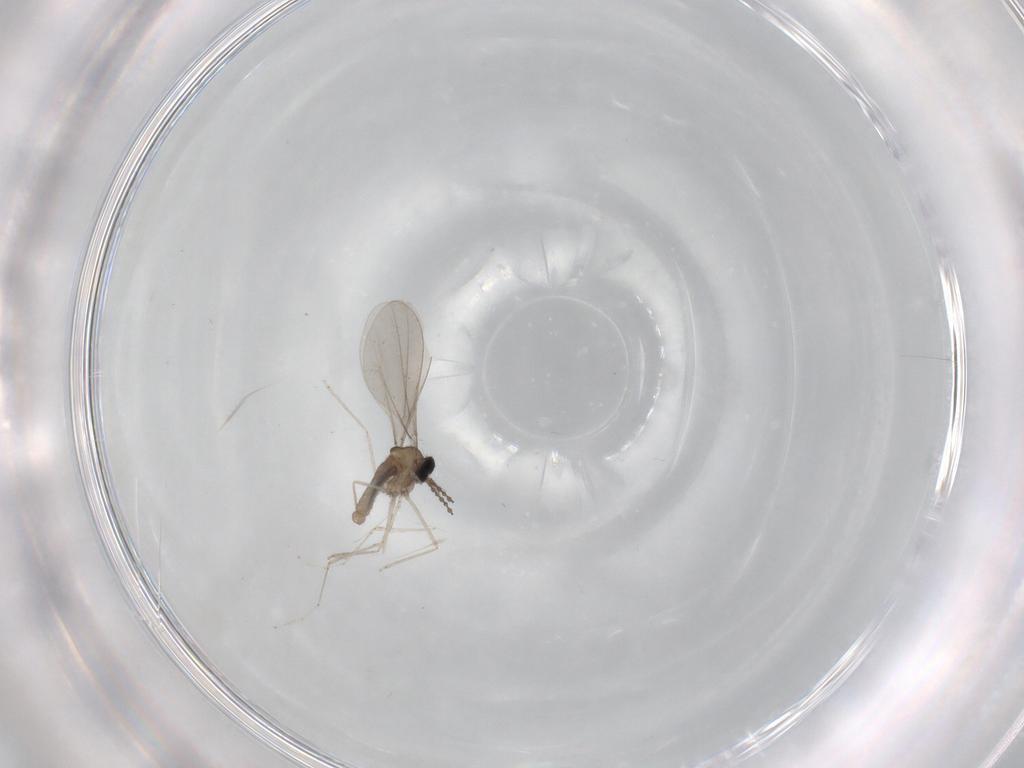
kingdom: Animalia
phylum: Arthropoda
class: Insecta
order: Diptera
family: Cecidomyiidae
